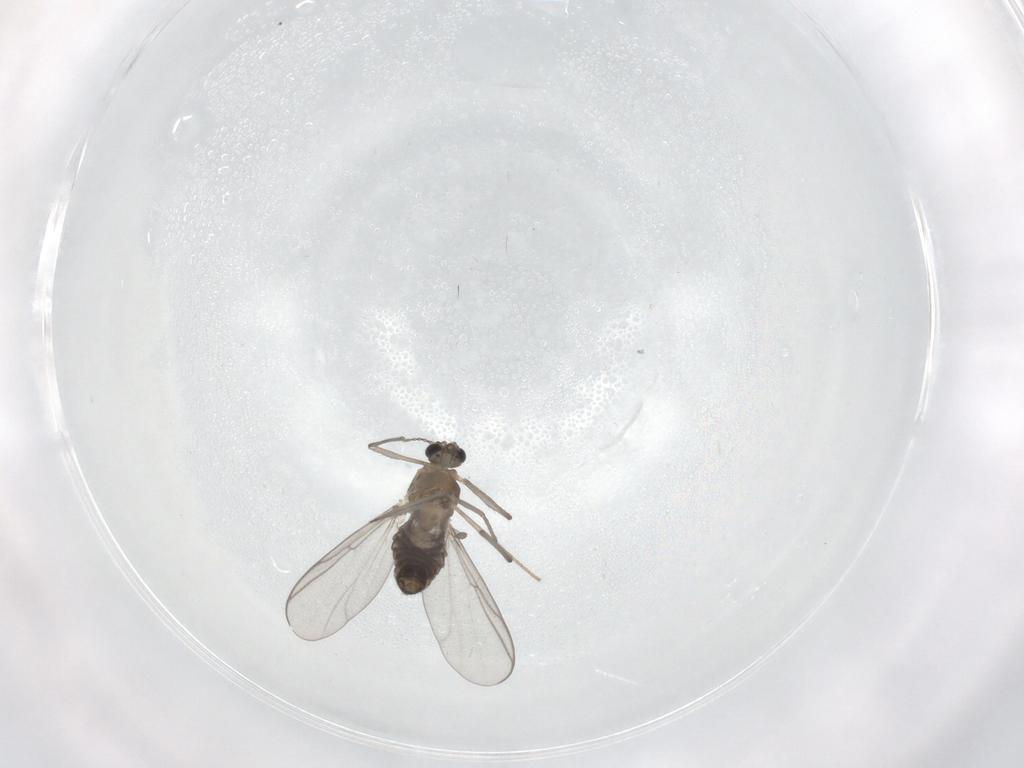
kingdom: Animalia
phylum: Arthropoda
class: Insecta
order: Diptera
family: Chironomidae
